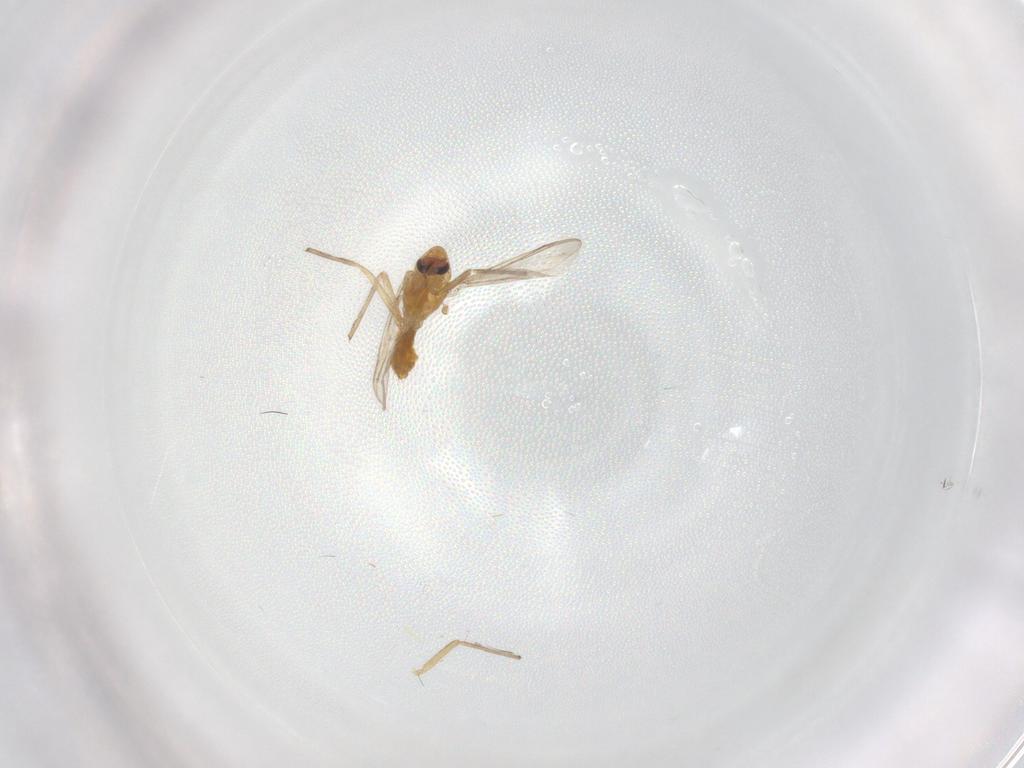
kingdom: Animalia
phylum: Arthropoda
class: Insecta
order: Diptera
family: Chironomidae
